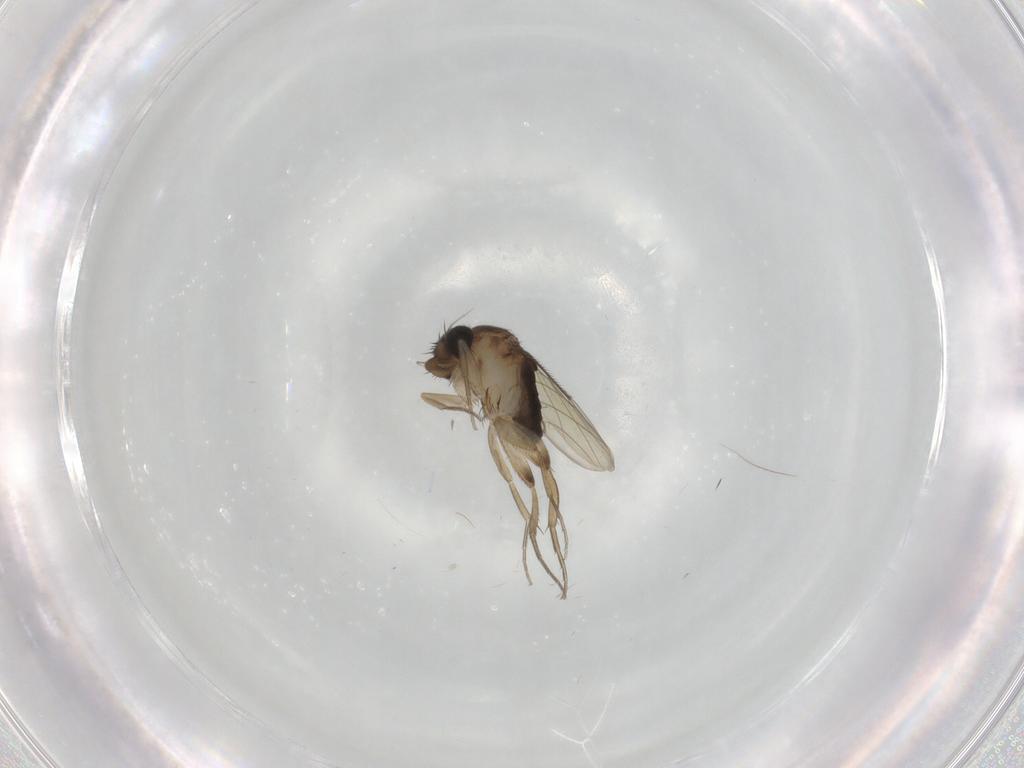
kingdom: Animalia
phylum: Arthropoda
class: Insecta
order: Diptera
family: Phoridae
